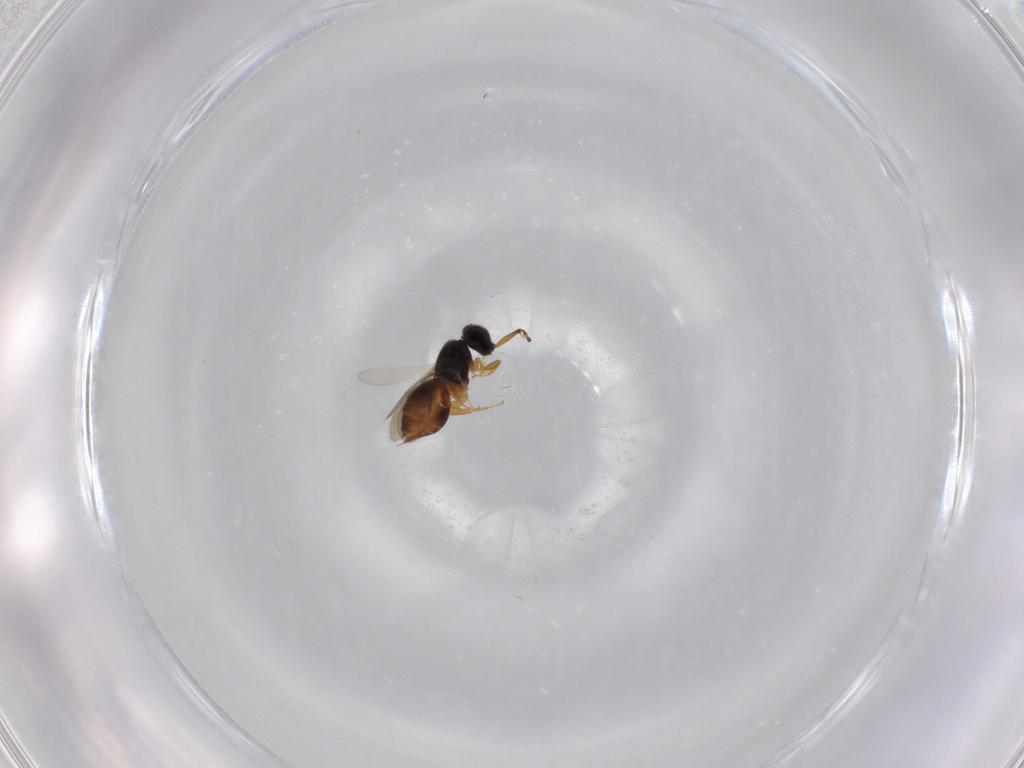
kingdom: Animalia
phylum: Arthropoda
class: Insecta
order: Hymenoptera
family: Ceraphronidae
